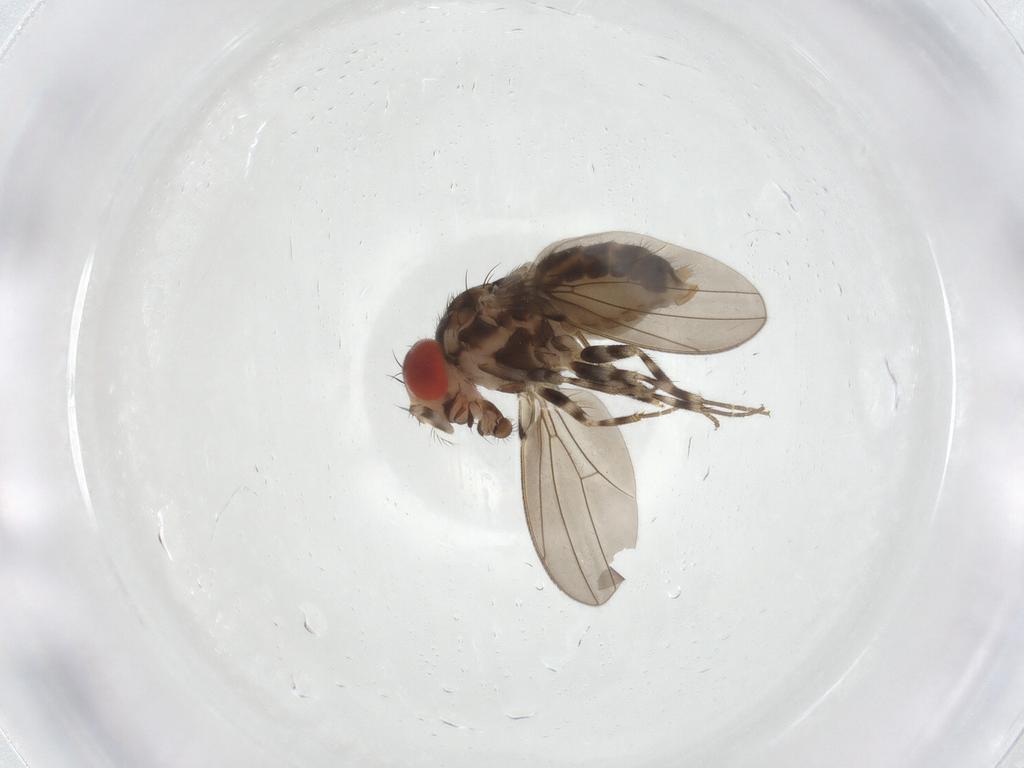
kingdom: Animalia
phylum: Arthropoda
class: Insecta
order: Diptera
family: Drosophilidae
